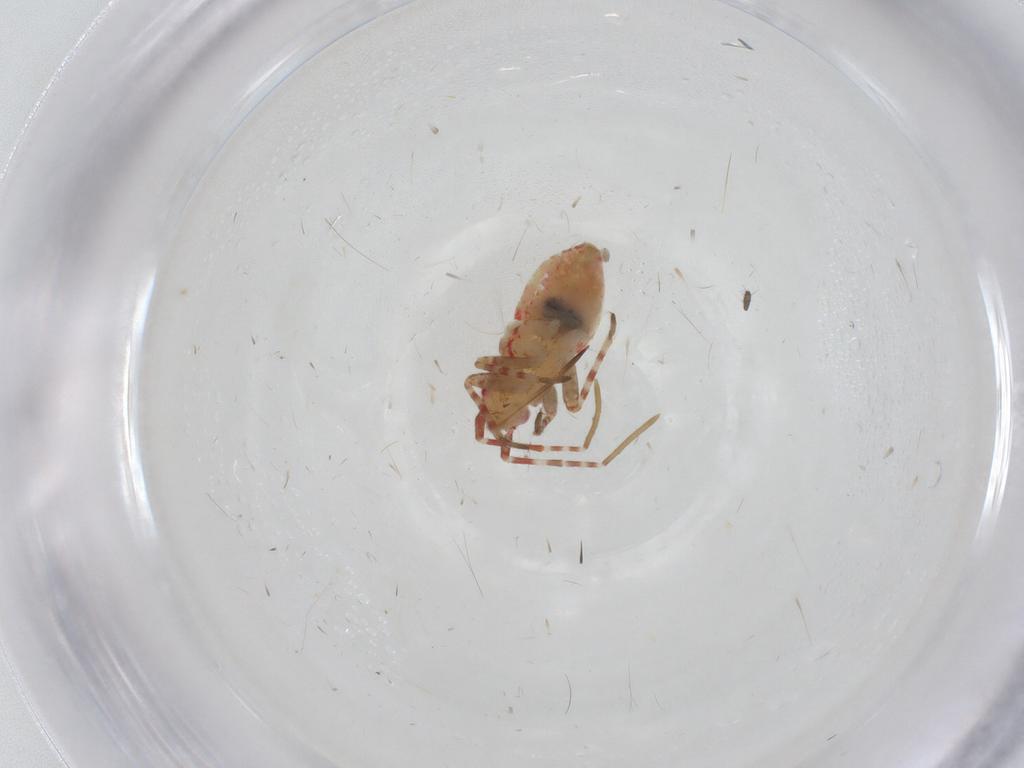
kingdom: Animalia
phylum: Arthropoda
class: Insecta
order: Hemiptera
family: Miridae
